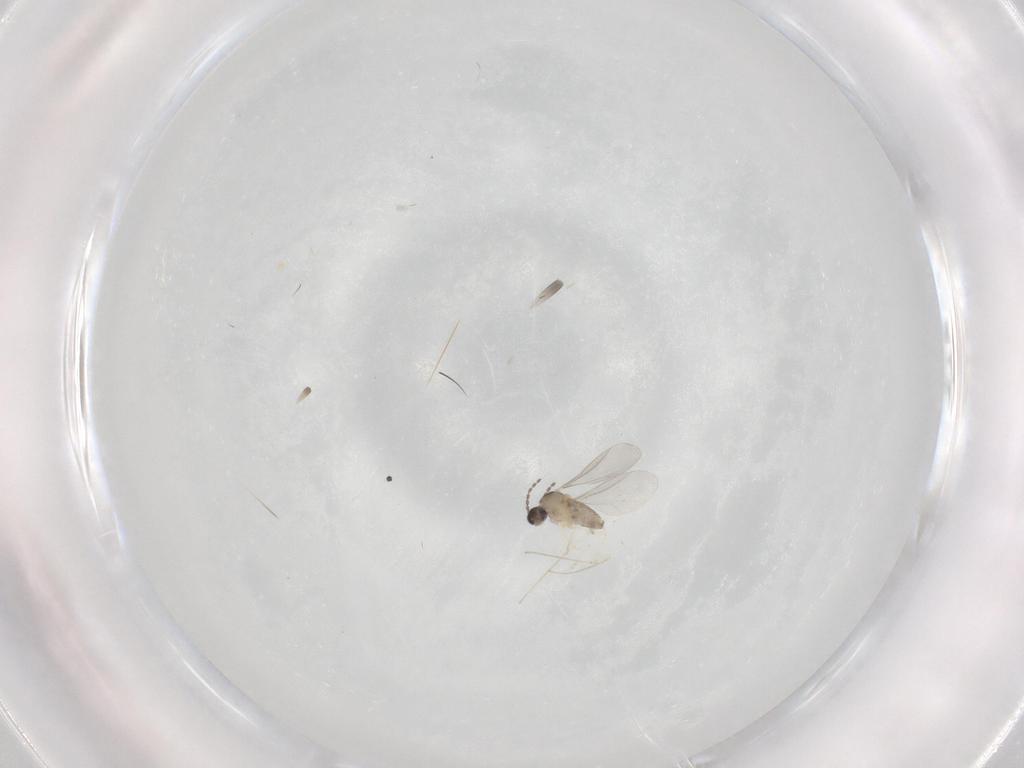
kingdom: Animalia
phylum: Arthropoda
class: Insecta
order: Diptera
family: Cecidomyiidae
